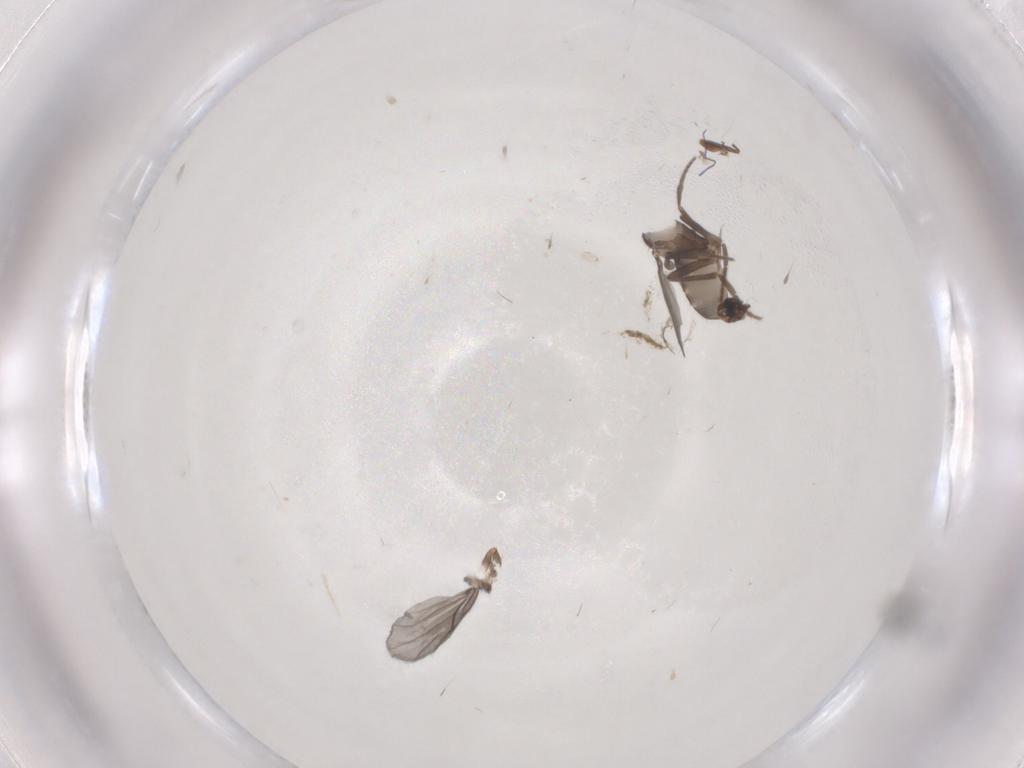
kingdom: Animalia
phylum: Arthropoda
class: Insecta
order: Diptera
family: Phoridae
